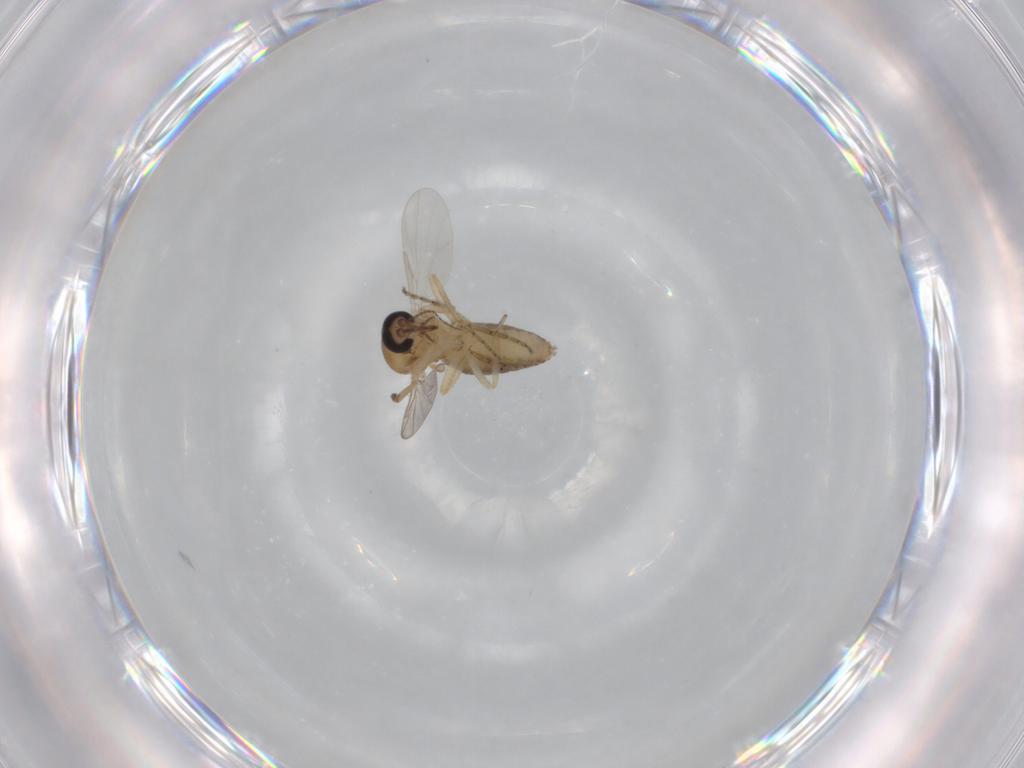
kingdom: Animalia
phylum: Arthropoda
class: Insecta
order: Diptera
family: Ceratopogonidae
